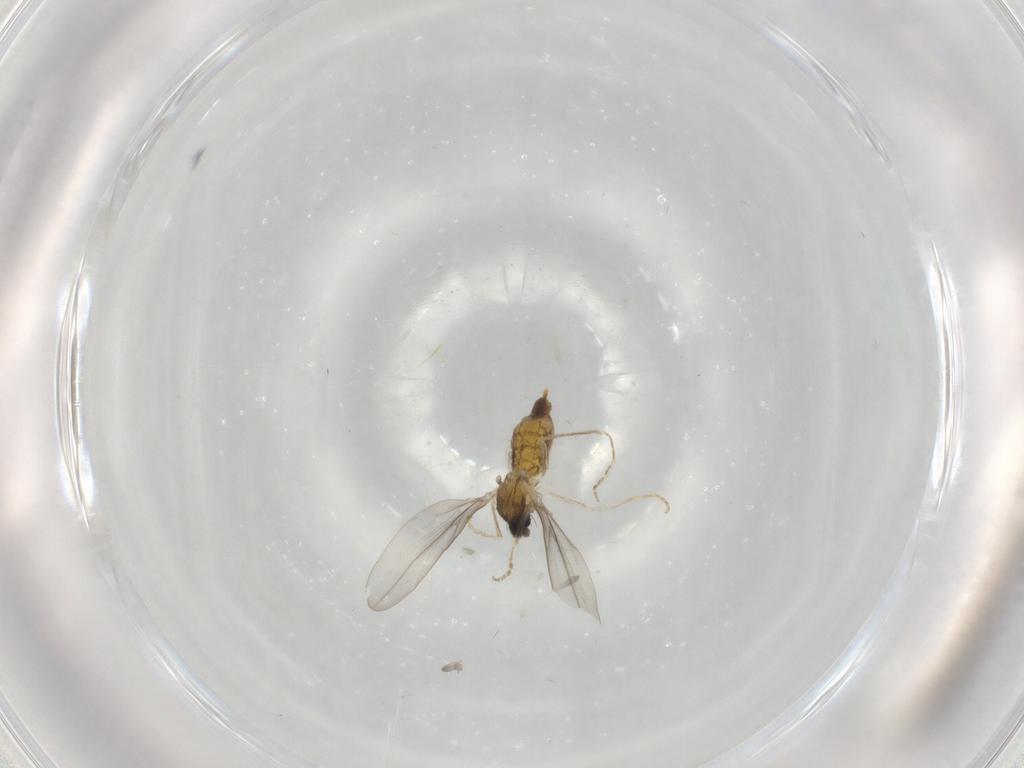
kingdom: Animalia
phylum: Arthropoda
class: Insecta
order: Diptera
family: Cecidomyiidae
